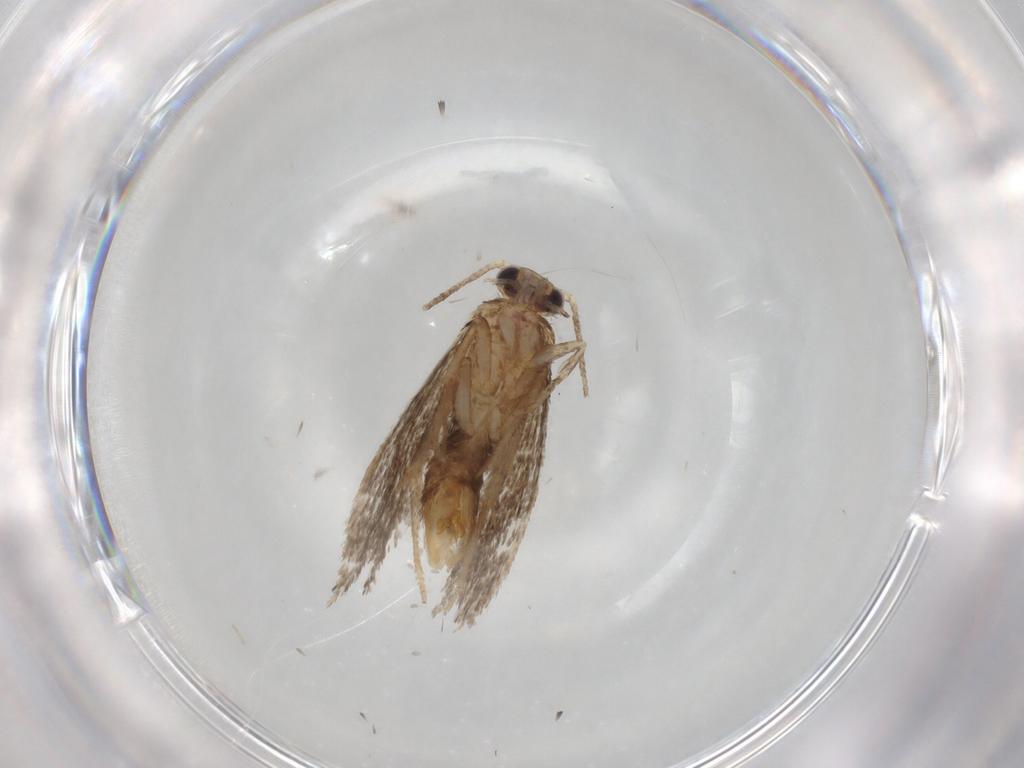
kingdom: Animalia
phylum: Arthropoda
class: Insecta
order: Lepidoptera
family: Tineidae
